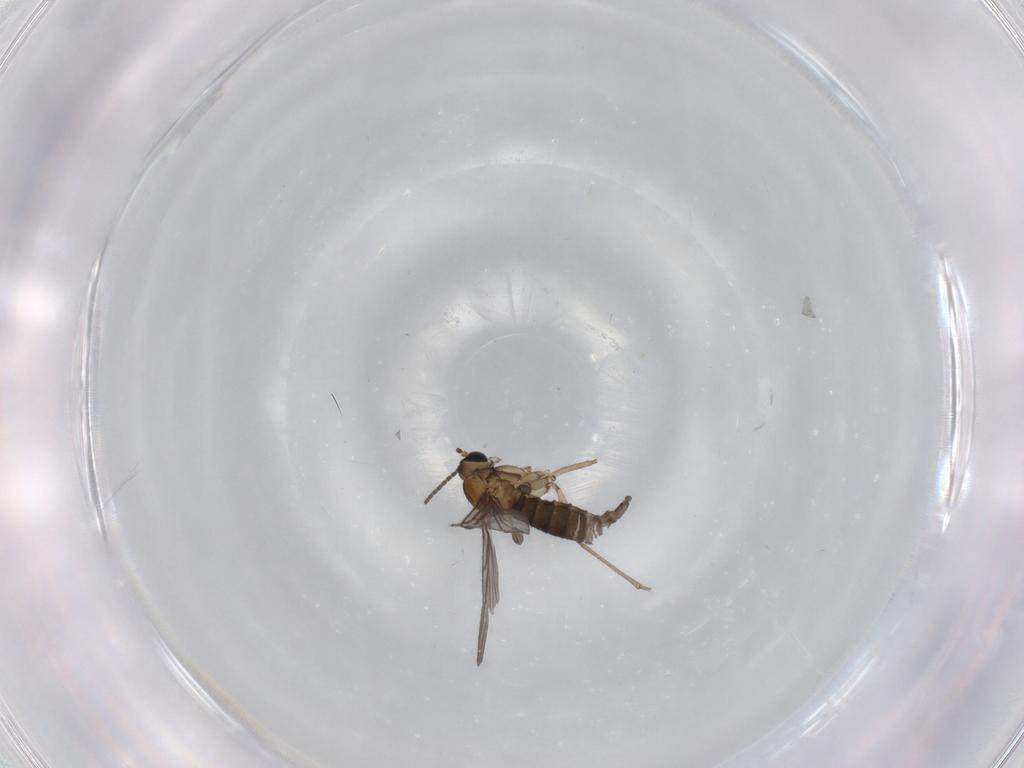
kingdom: Animalia
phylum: Arthropoda
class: Insecta
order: Diptera
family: Sciaridae
